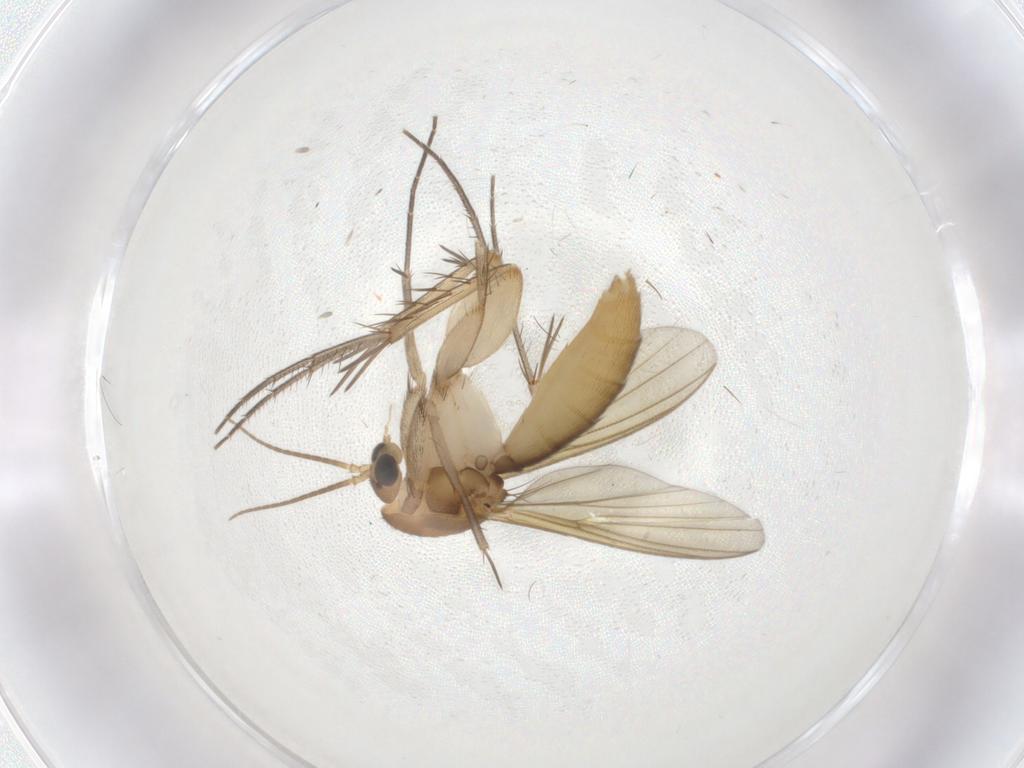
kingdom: Animalia
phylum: Arthropoda
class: Insecta
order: Diptera
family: Mycetophilidae
